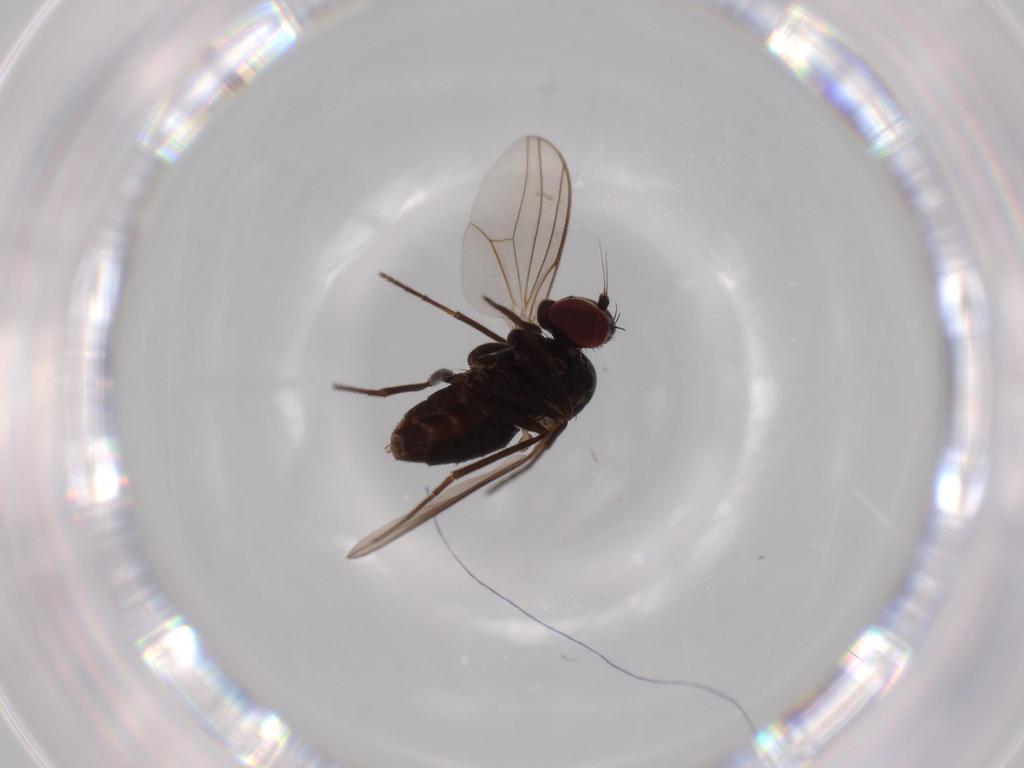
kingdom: Animalia
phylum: Arthropoda
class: Insecta
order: Diptera
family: Dolichopodidae
